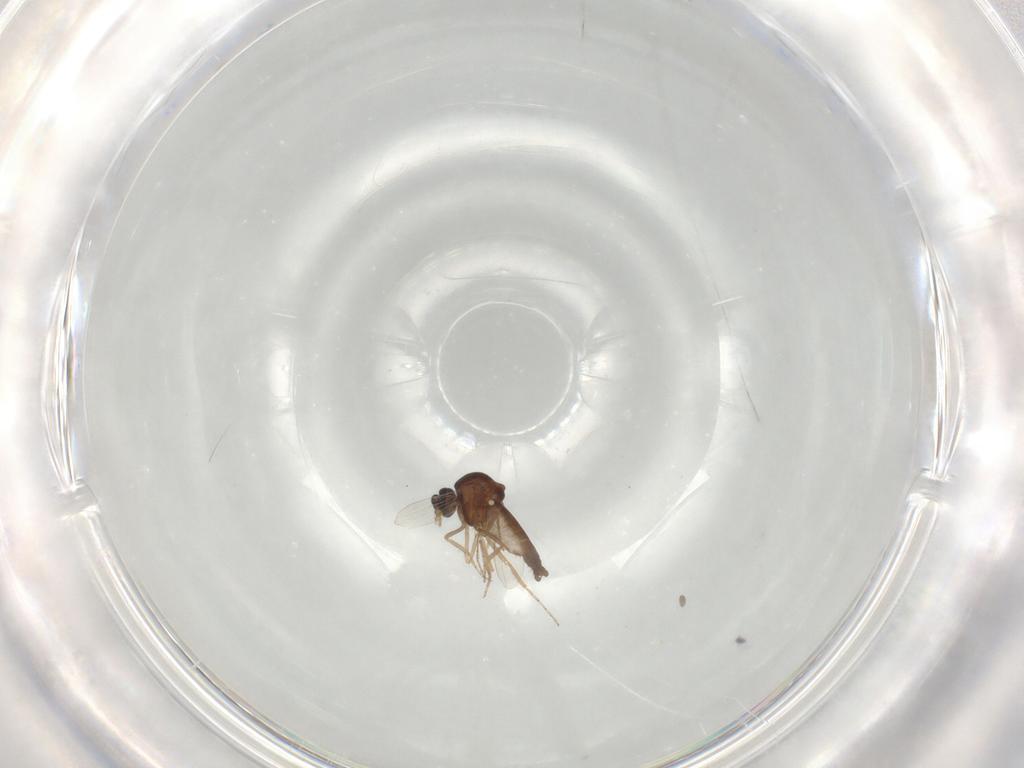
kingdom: Animalia
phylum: Arthropoda
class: Insecta
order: Diptera
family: Ceratopogonidae
